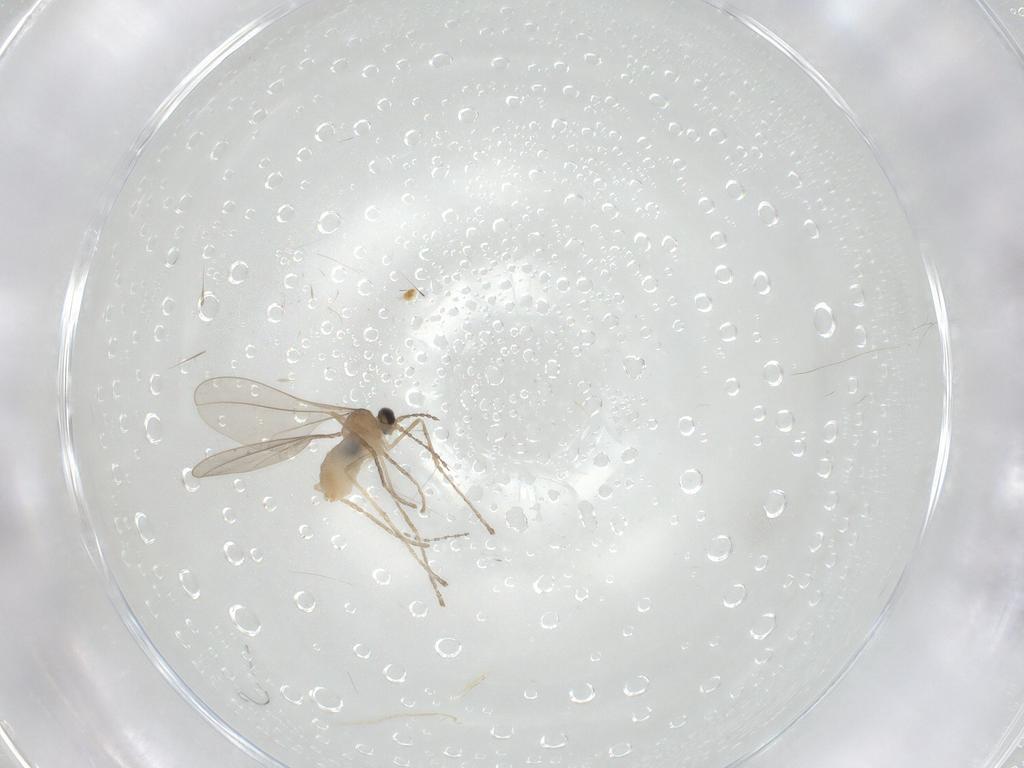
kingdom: Animalia
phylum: Arthropoda
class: Insecta
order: Diptera
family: Cecidomyiidae
